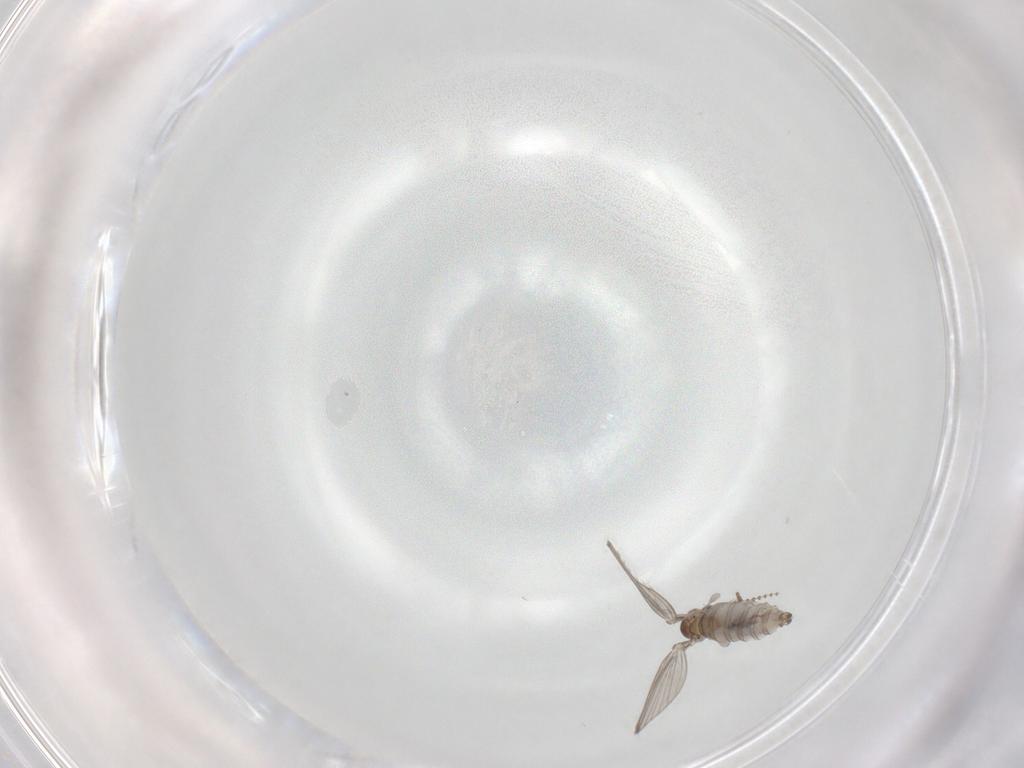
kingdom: Animalia
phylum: Arthropoda
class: Insecta
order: Diptera
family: Psychodidae
